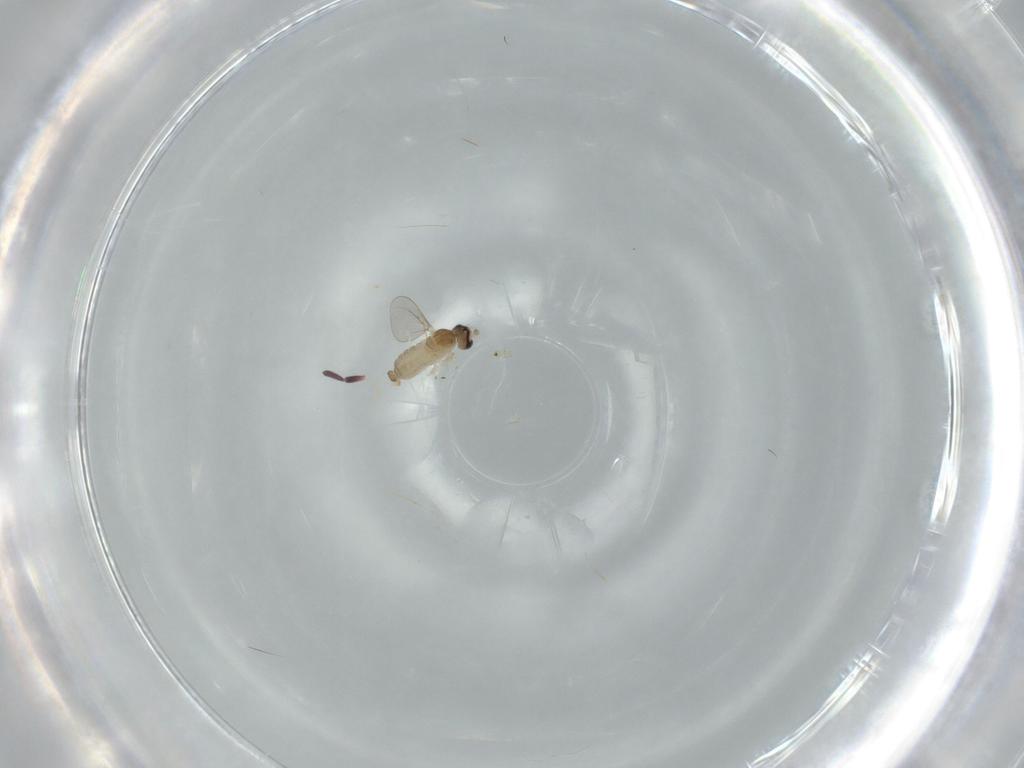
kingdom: Animalia
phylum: Arthropoda
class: Insecta
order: Diptera
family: Cecidomyiidae
